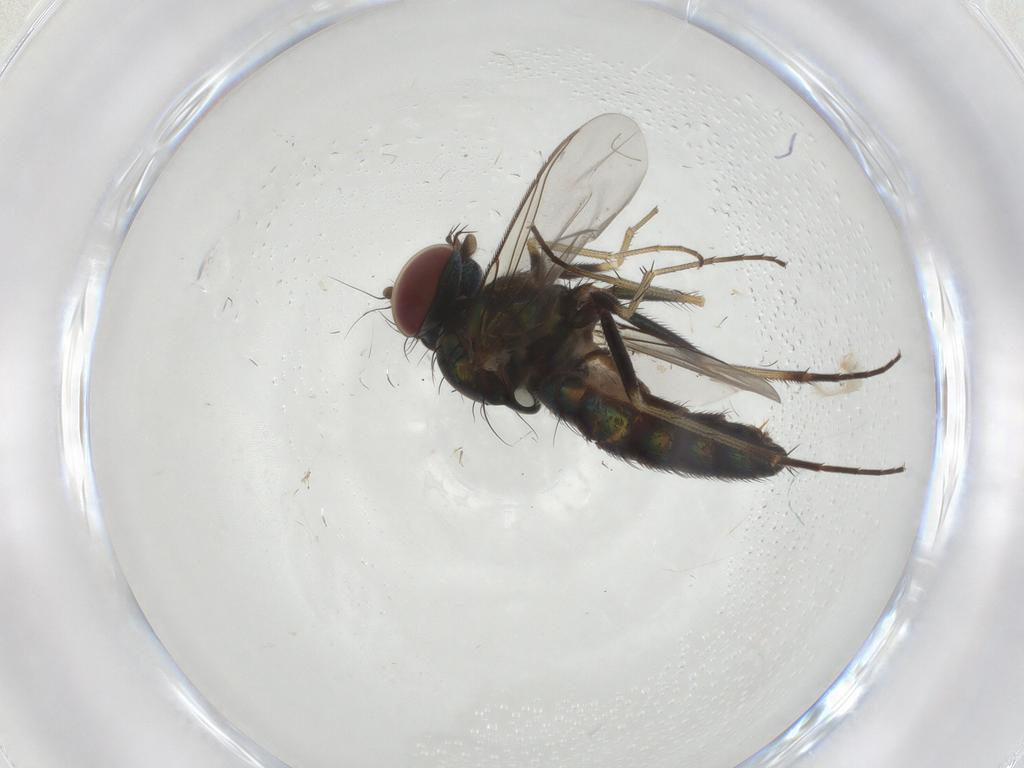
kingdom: Animalia
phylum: Arthropoda
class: Insecta
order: Diptera
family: Dolichopodidae
